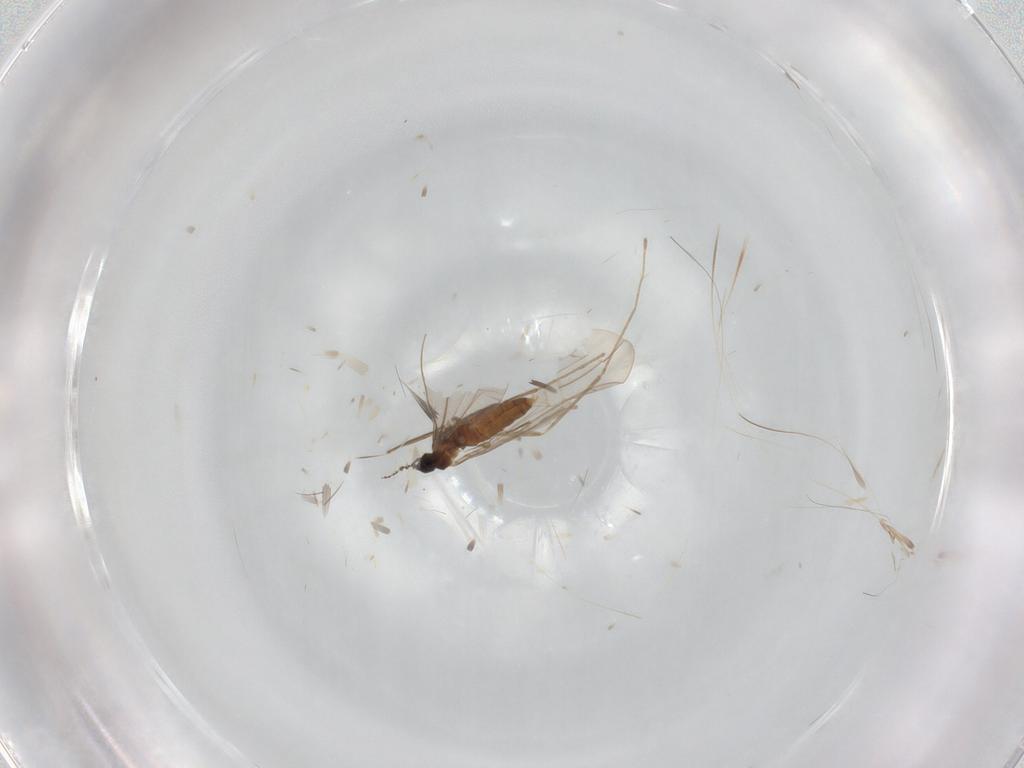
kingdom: Animalia
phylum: Arthropoda
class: Insecta
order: Diptera
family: Cecidomyiidae
